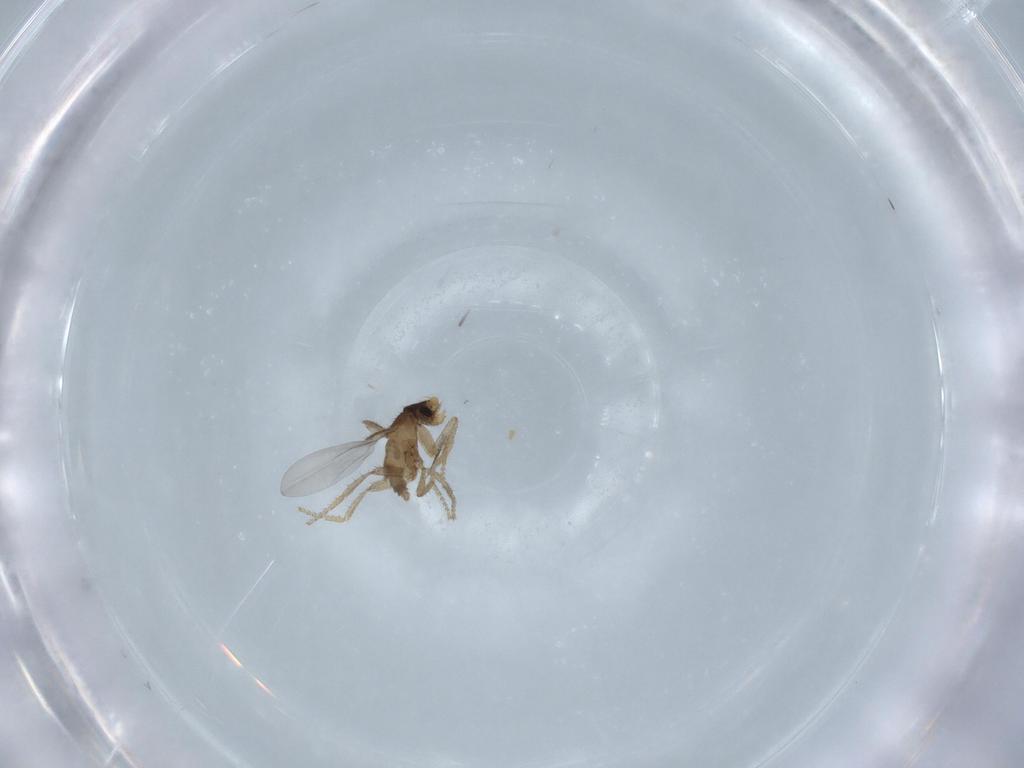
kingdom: Animalia
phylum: Arthropoda
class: Insecta
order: Diptera
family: Phoridae
